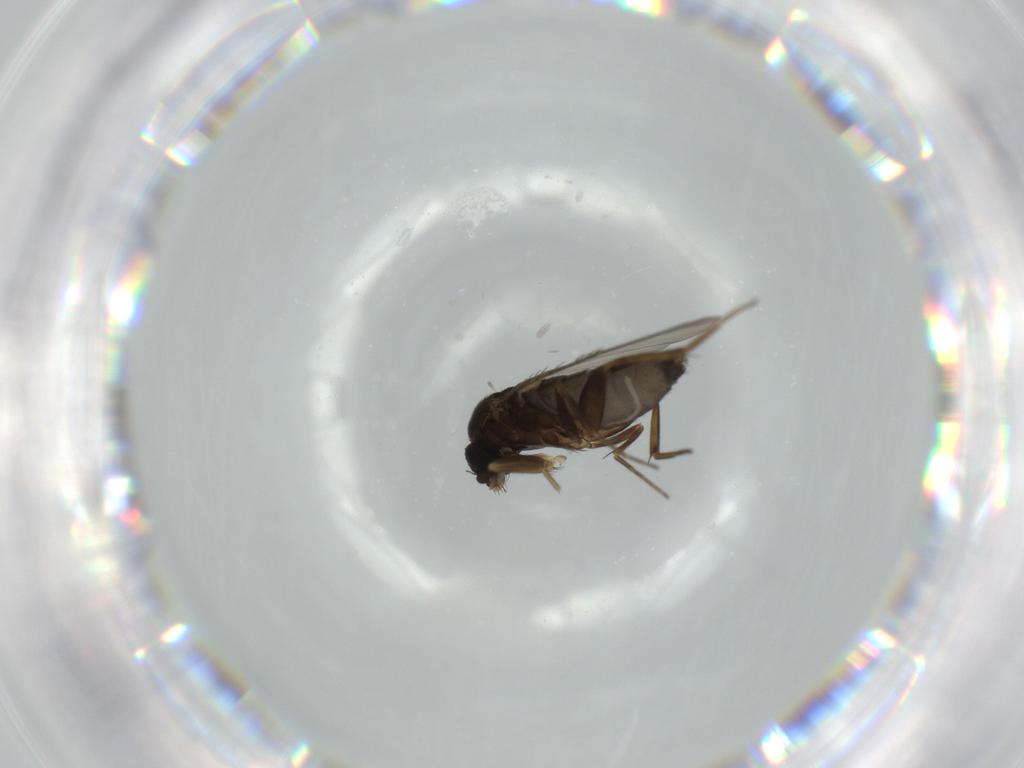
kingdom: Animalia
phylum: Arthropoda
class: Insecta
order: Diptera
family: Phoridae
